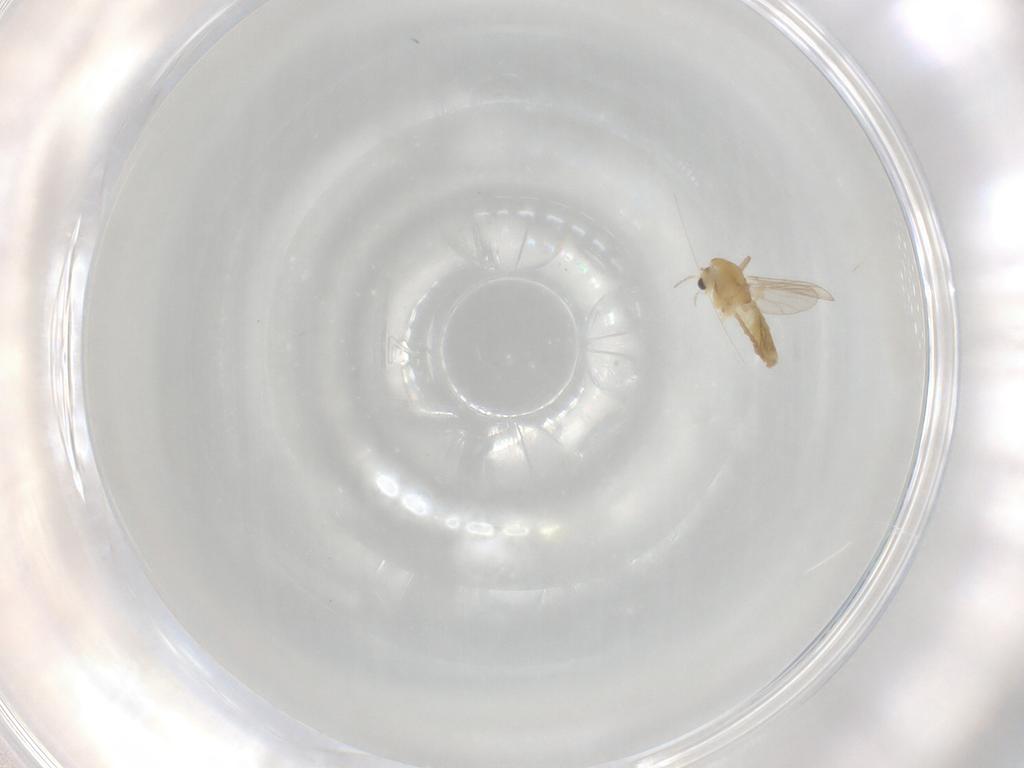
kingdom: Animalia
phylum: Arthropoda
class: Insecta
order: Diptera
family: Chironomidae
